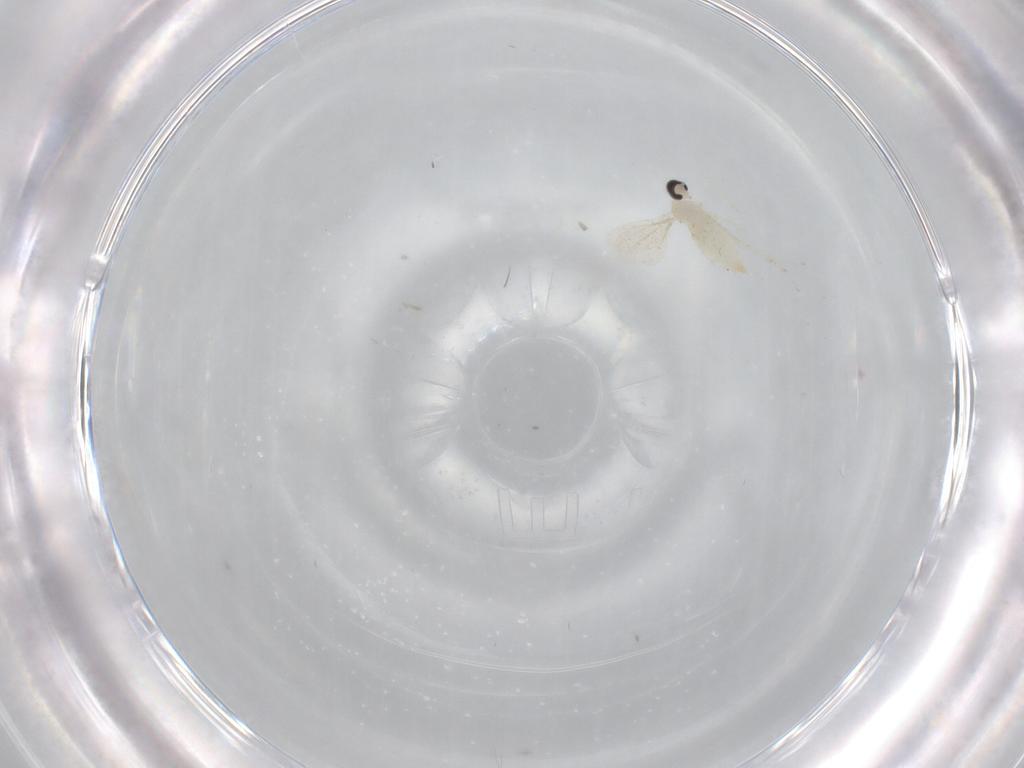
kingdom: Animalia
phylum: Arthropoda
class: Insecta
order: Diptera
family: Cecidomyiidae
